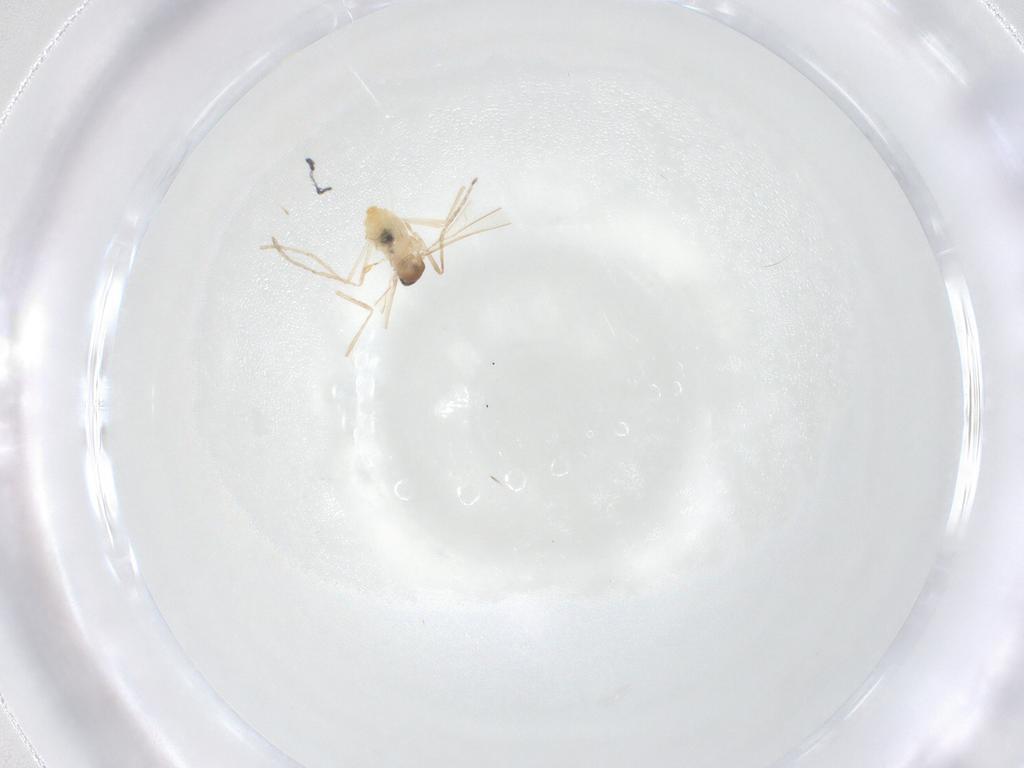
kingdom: Animalia
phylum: Arthropoda
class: Insecta
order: Diptera
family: Cecidomyiidae
